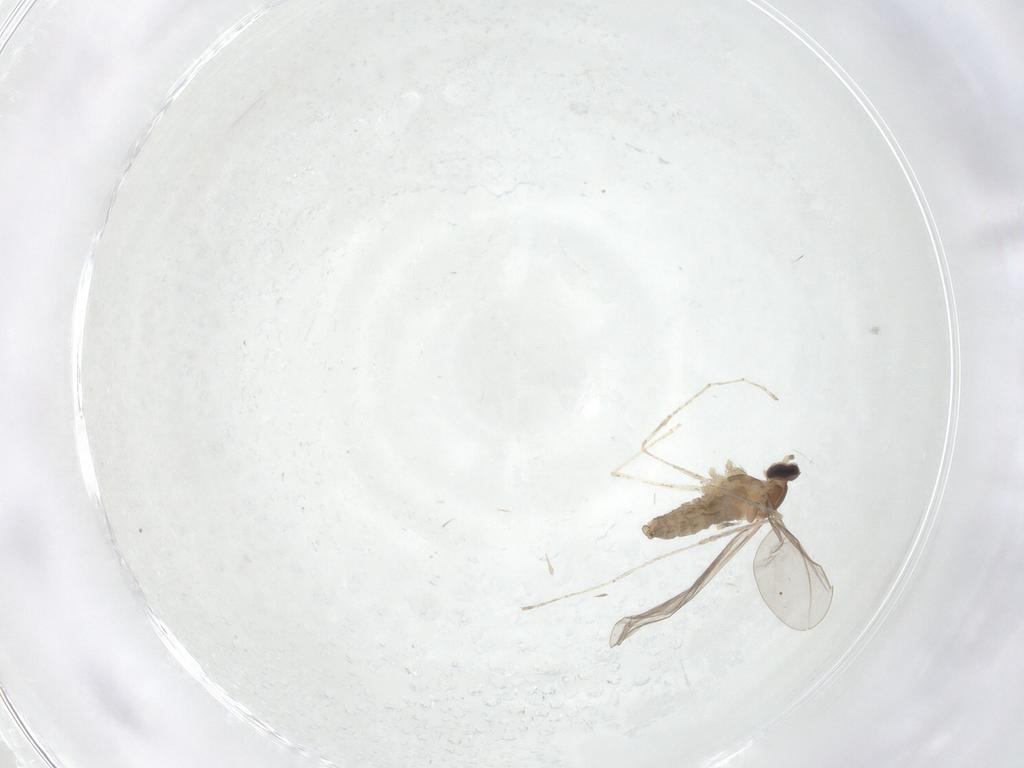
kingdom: Animalia
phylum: Arthropoda
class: Insecta
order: Diptera
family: Cecidomyiidae
